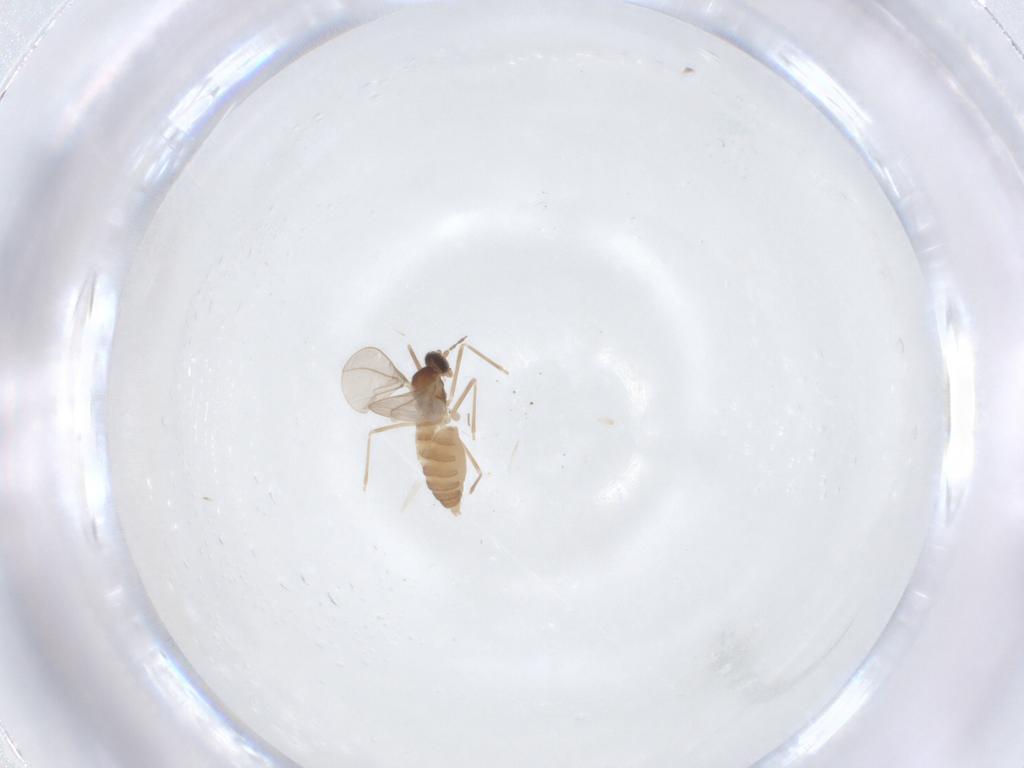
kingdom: Animalia
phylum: Arthropoda
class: Insecta
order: Diptera
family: Cecidomyiidae
